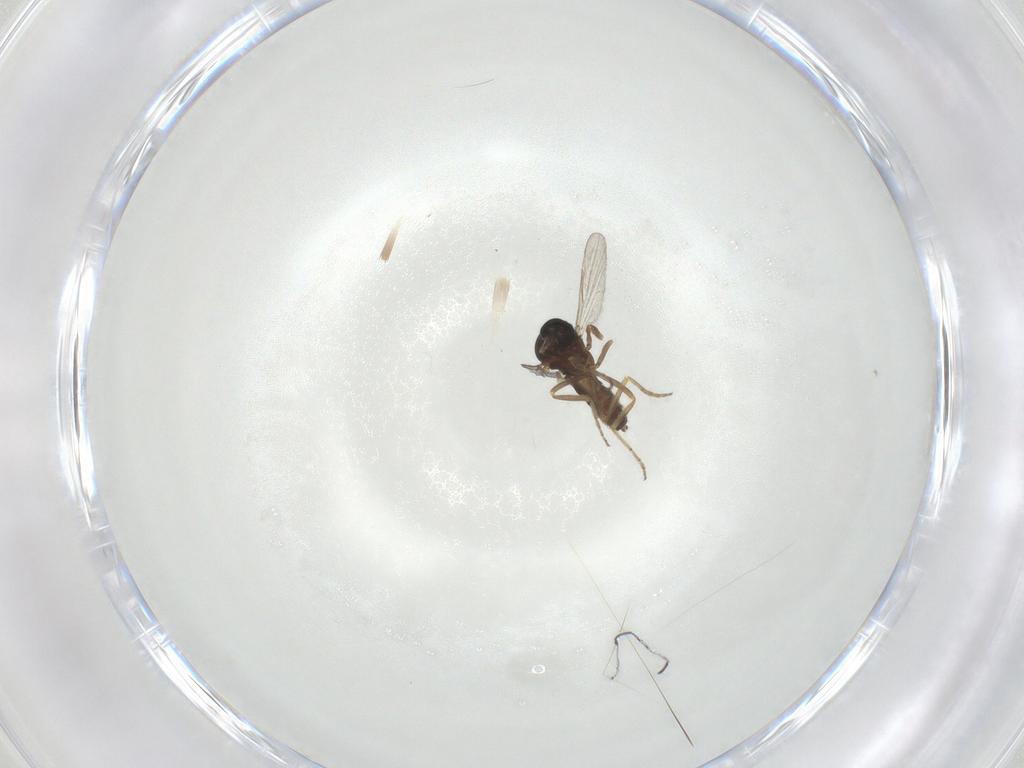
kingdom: Animalia
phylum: Arthropoda
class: Insecta
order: Diptera
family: Ceratopogonidae
